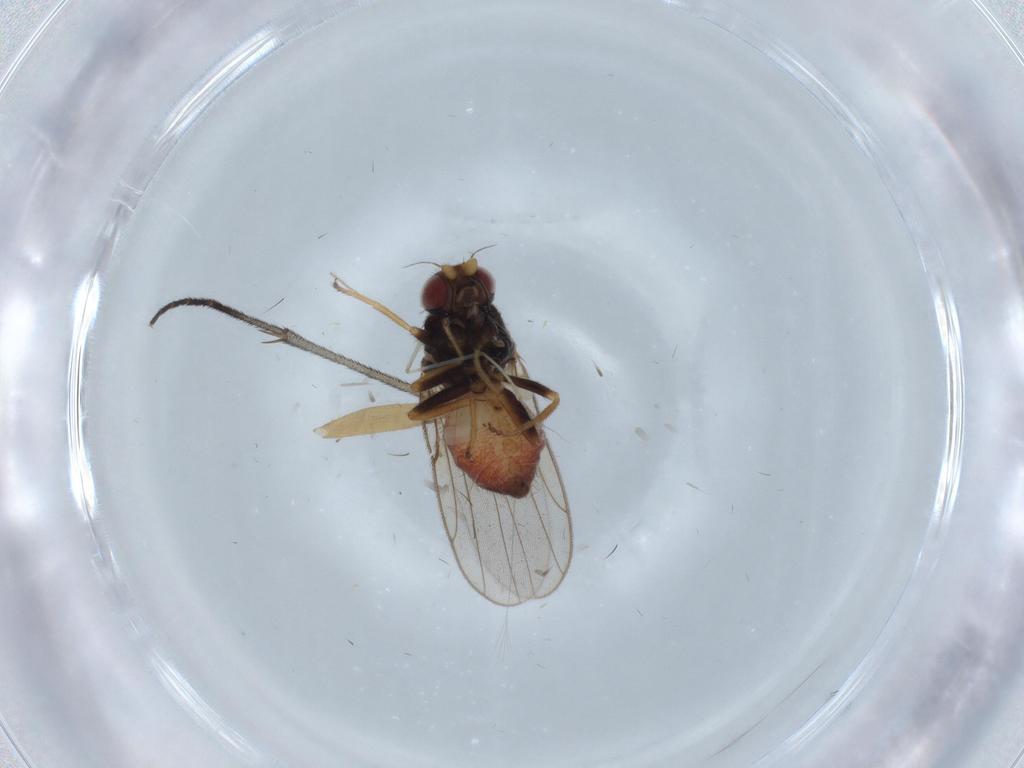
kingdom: Animalia
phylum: Arthropoda
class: Insecta
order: Diptera
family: Chloropidae
